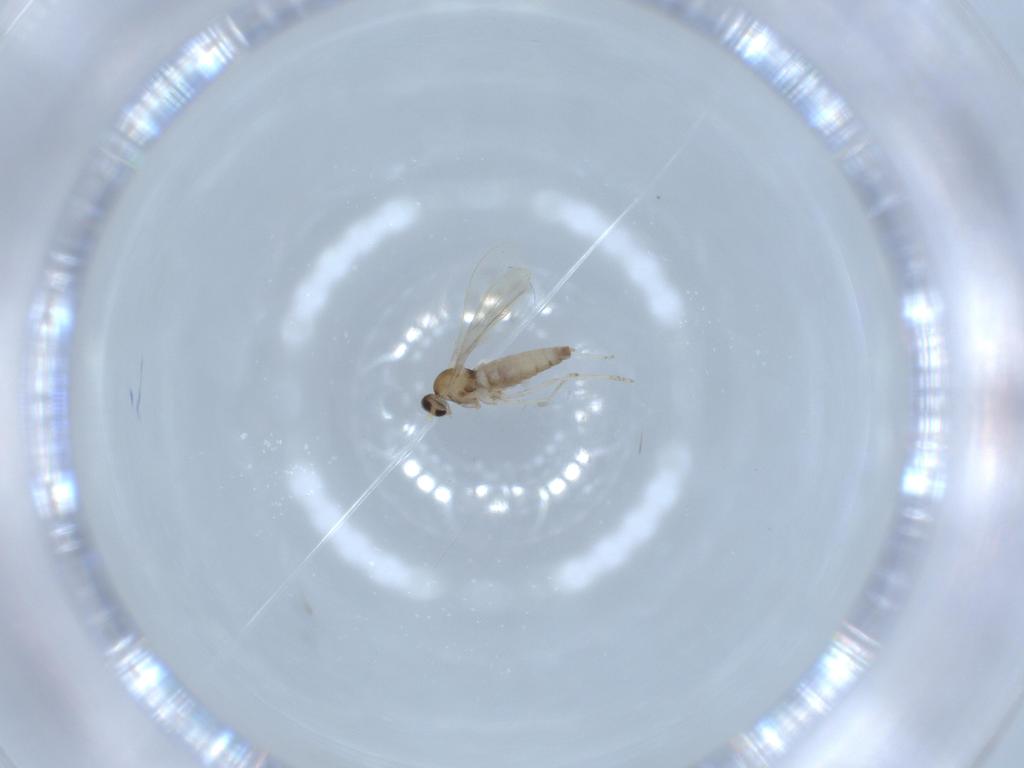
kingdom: Animalia
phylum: Arthropoda
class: Insecta
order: Diptera
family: Cecidomyiidae
